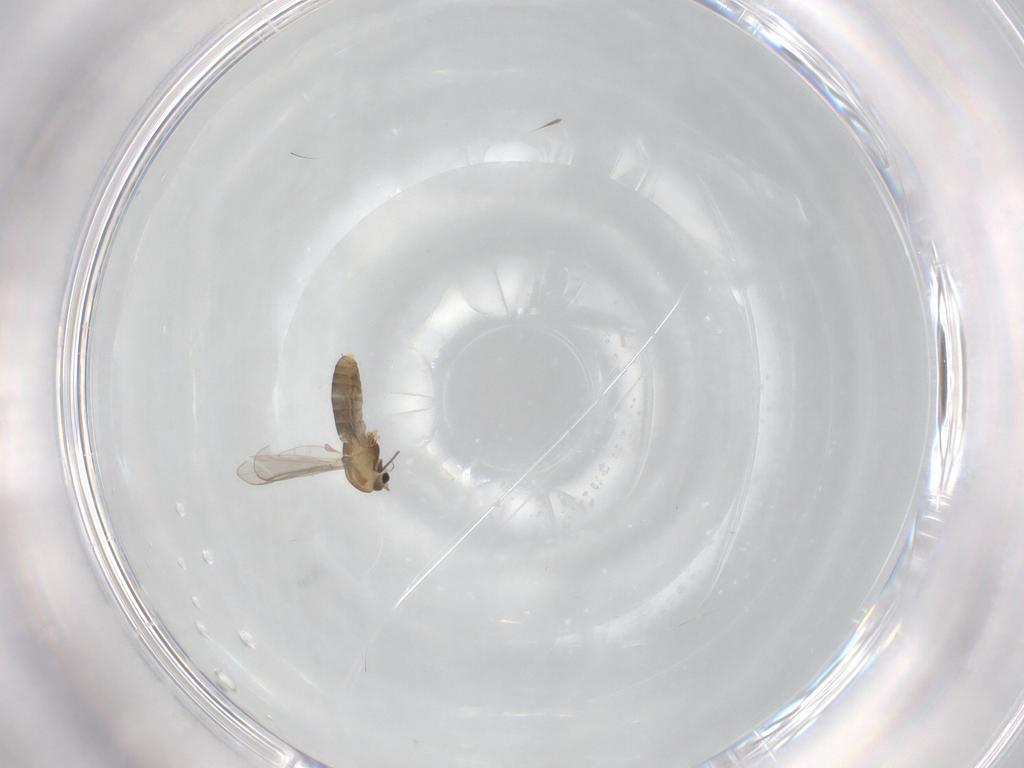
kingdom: Animalia
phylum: Arthropoda
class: Insecta
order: Diptera
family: Chironomidae
